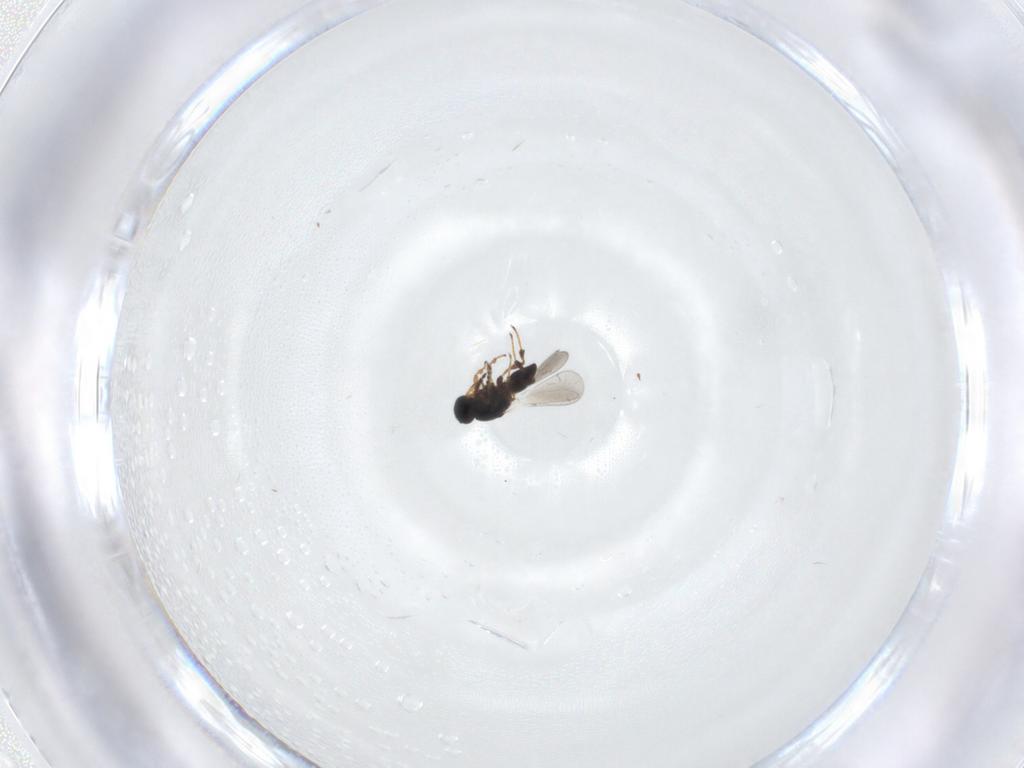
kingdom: Animalia
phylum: Arthropoda
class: Insecta
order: Hymenoptera
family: Platygastridae
